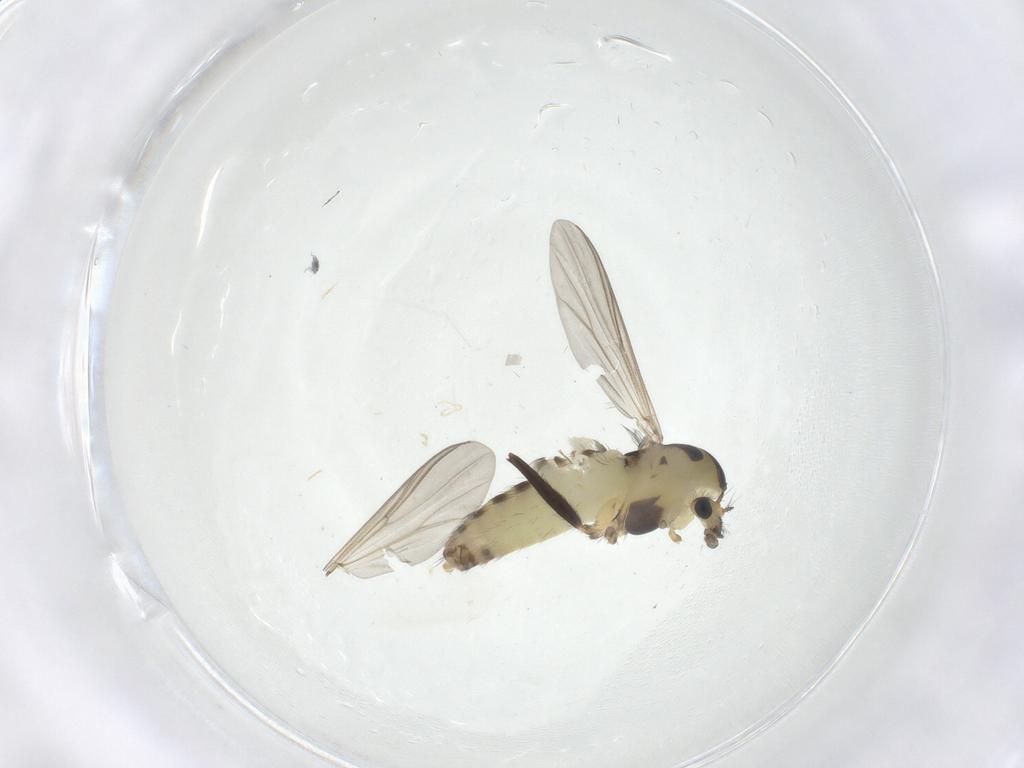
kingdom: Animalia
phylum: Arthropoda
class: Insecta
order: Diptera
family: Chironomidae
